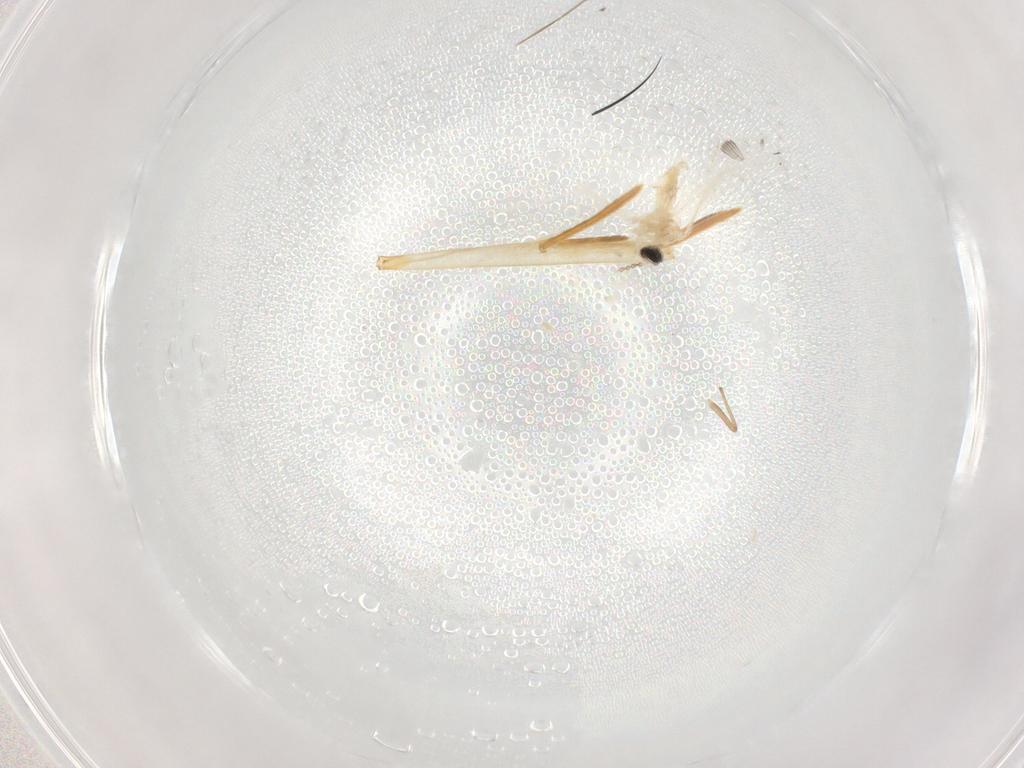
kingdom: Animalia
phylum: Arthropoda
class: Insecta
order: Diptera
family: Chironomidae
